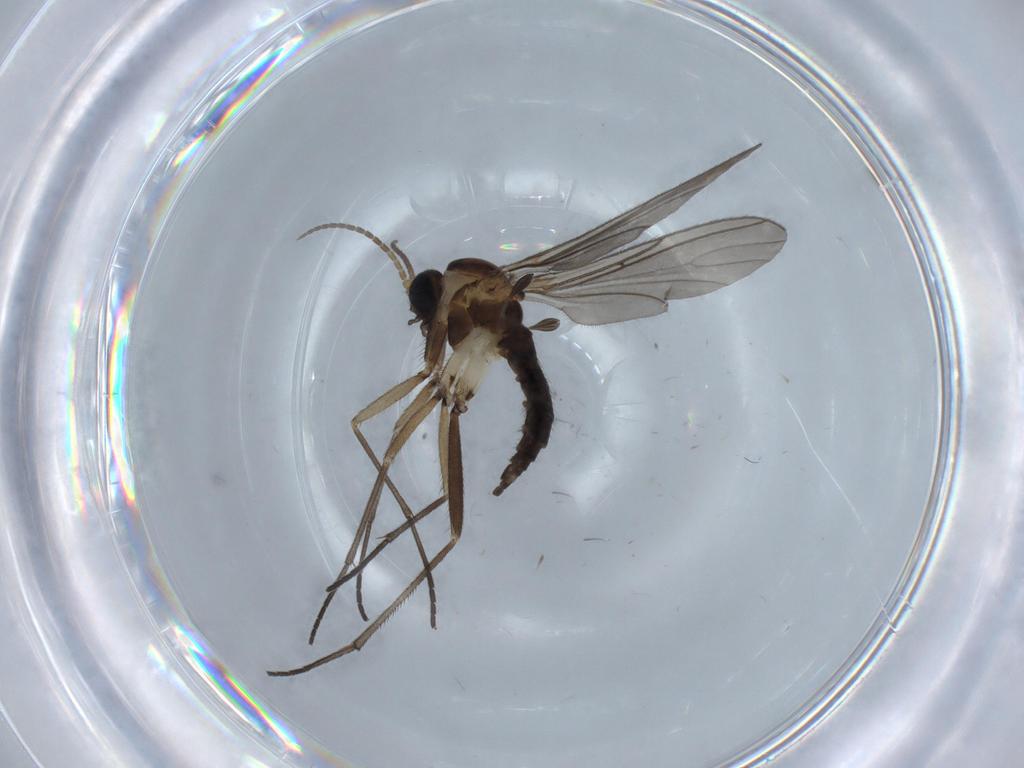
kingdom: Animalia
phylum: Arthropoda
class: Insecta
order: Diptera
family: Sciaridae
